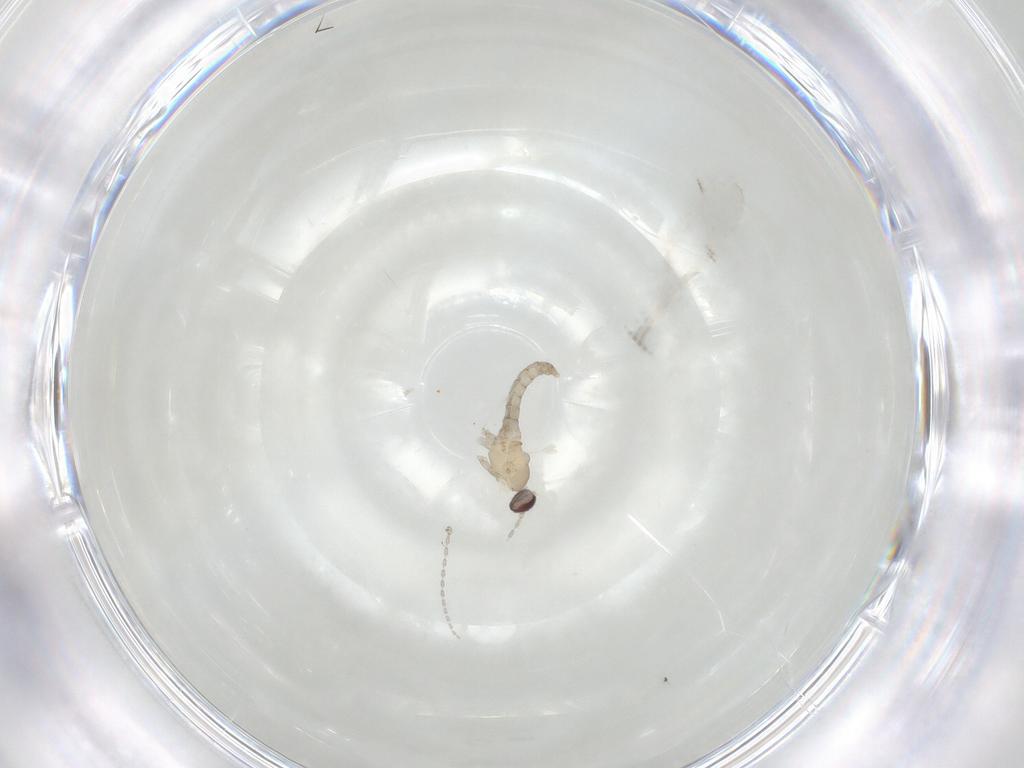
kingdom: Animalia
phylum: Arthropoda
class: Insecta
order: Diptera
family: Cecidomyiidae
